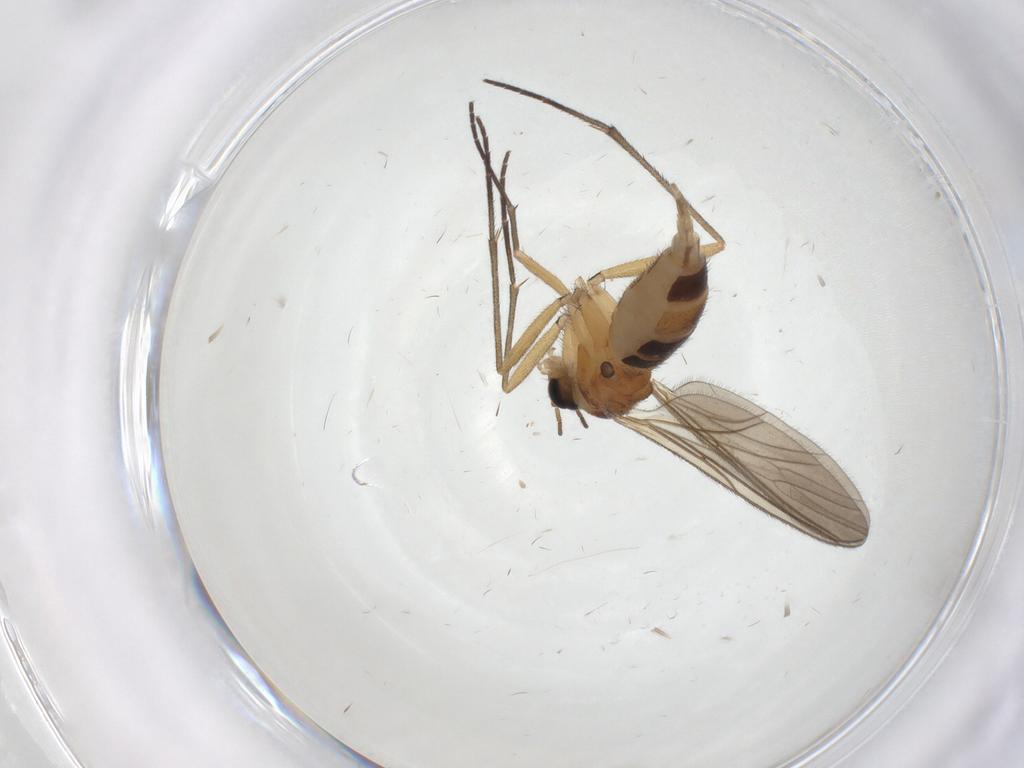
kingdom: Animalia
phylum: Arthropoda
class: Insecta
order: Diptera
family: Sciaridae
